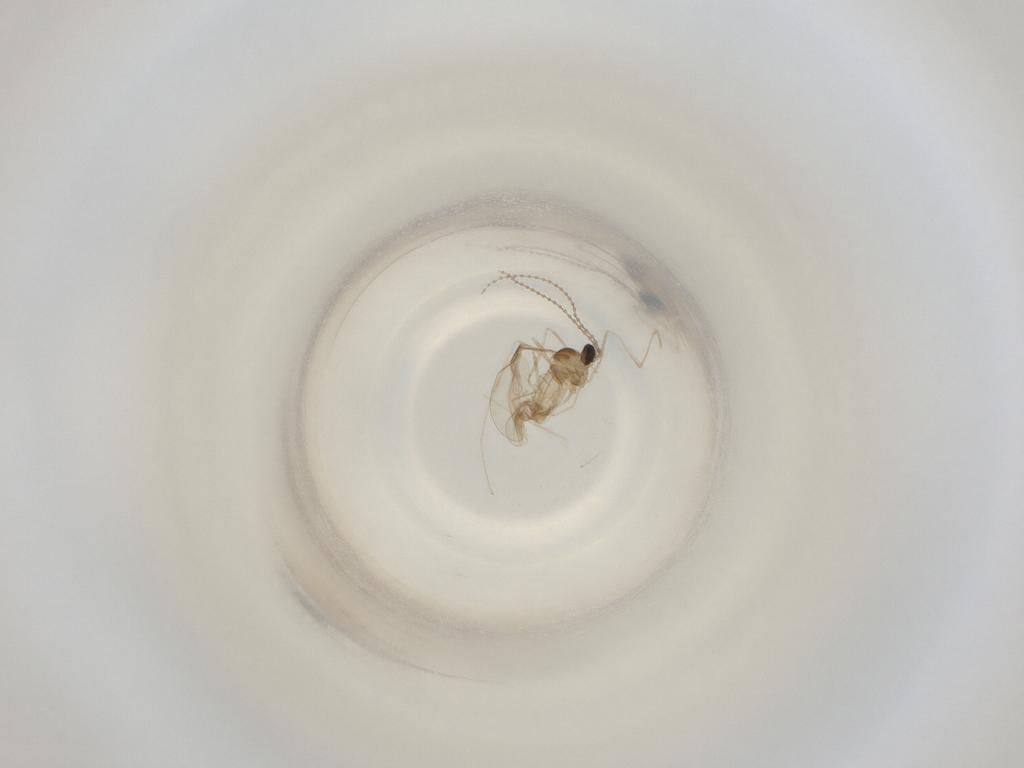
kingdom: Animalia
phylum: Arthropoda
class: Insecta
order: Diptera
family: Cecidomyiidae
